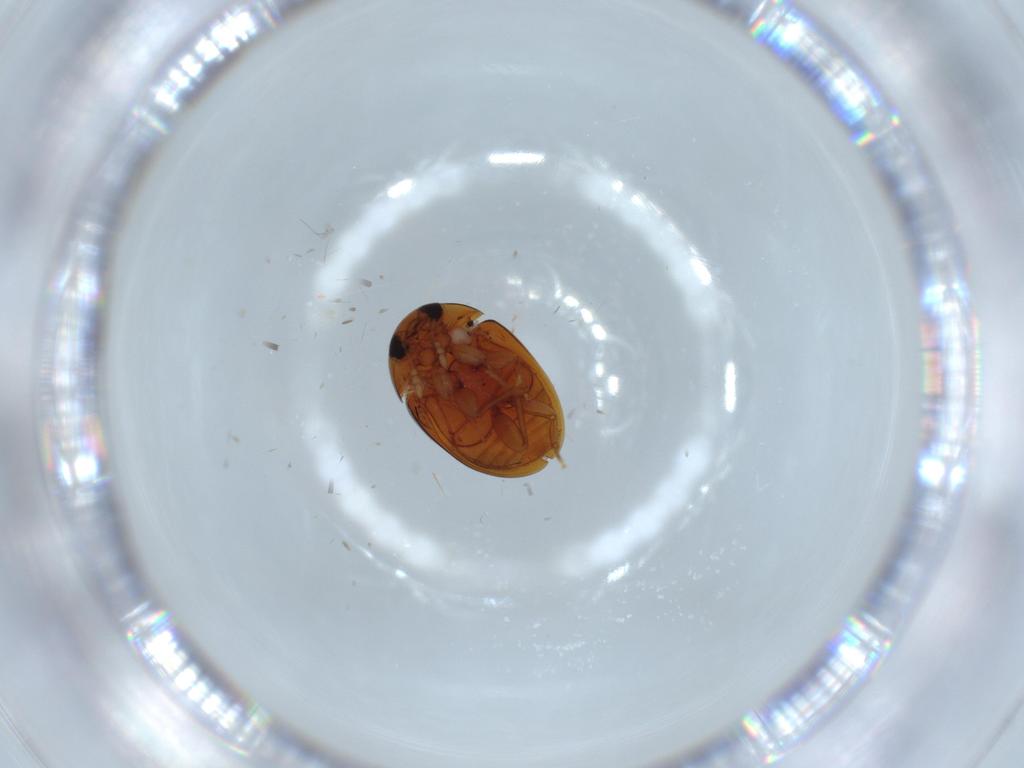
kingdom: Animalia
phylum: Arthropoda
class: Insecta
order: Coleoptera
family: Phalacridae
